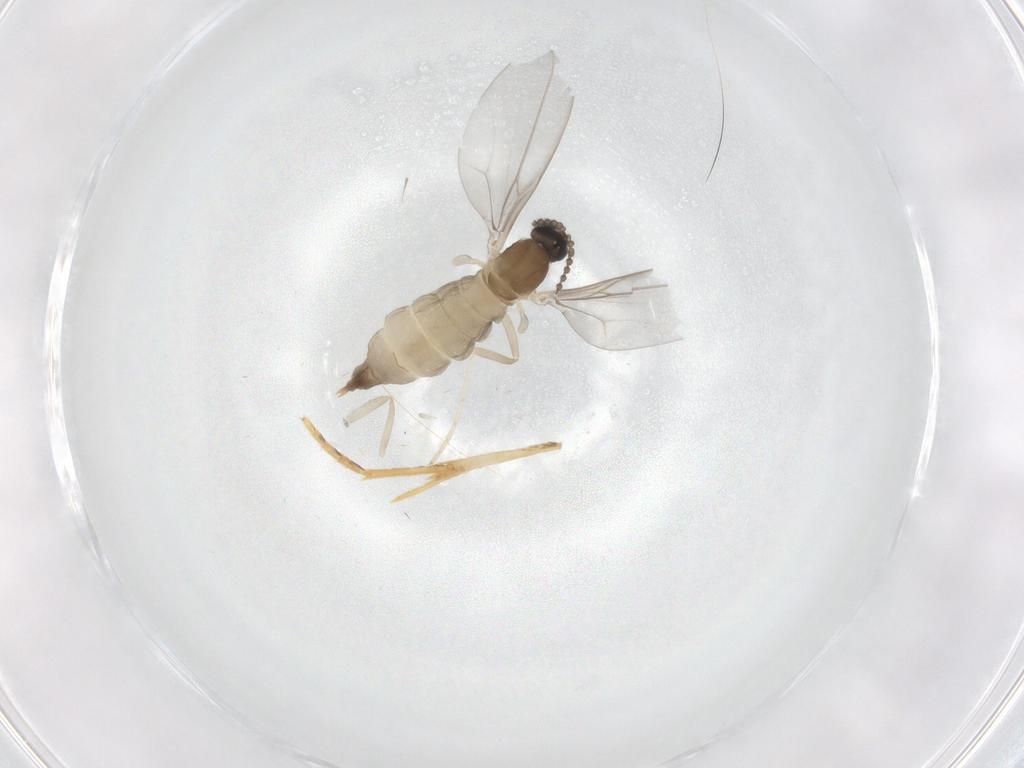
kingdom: Animalia
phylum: Arthropoda
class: Insecta
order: Diptera
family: Cecidomyiidae
